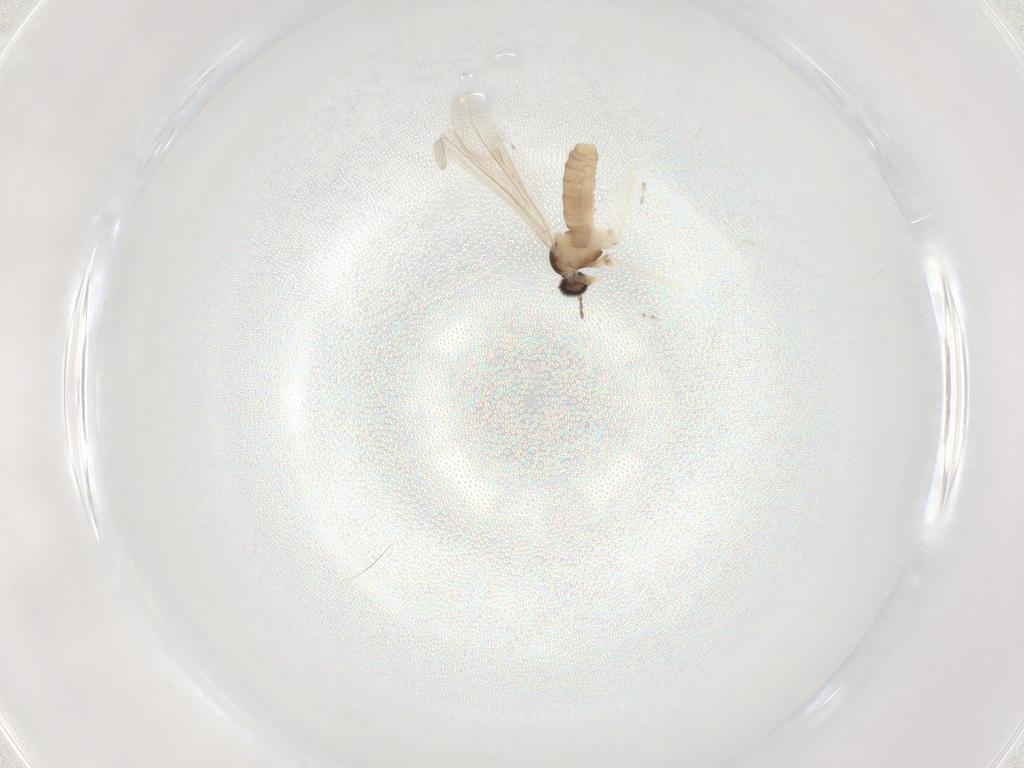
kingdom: Animalia
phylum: Arthropoda
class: Insecta
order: Diptera
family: Cecidomyiidae
